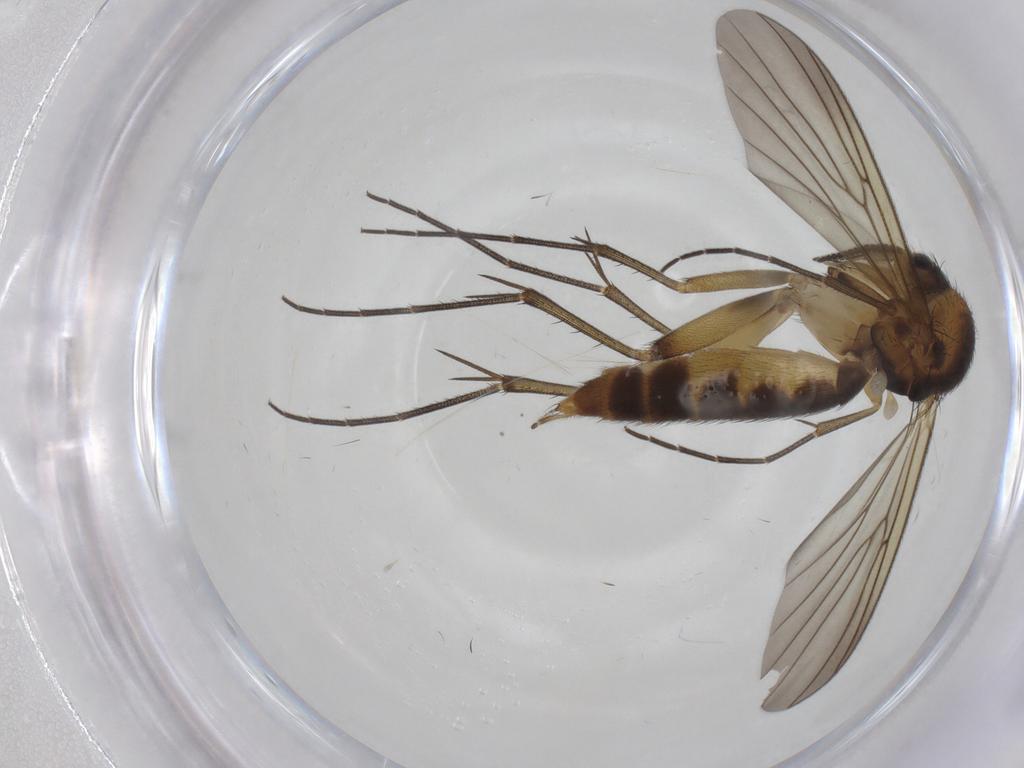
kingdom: Animalia
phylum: Arthropoda
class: Insecta
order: Diptera
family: Mycetophilidae
